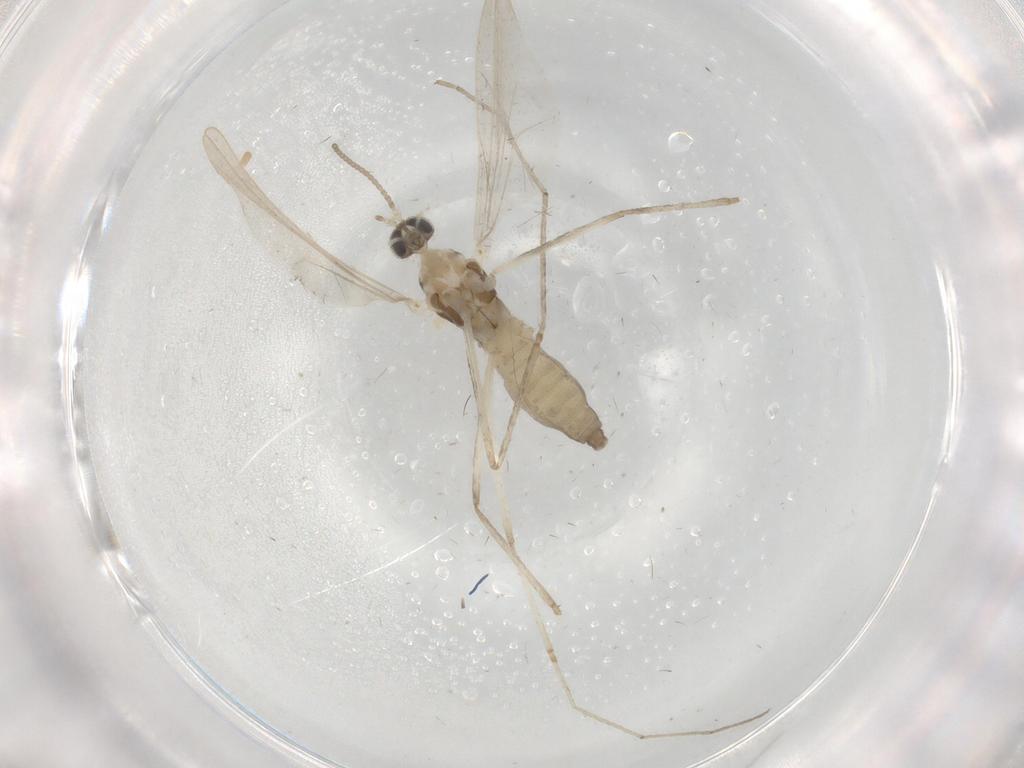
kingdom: Animalia
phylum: Arthropoda
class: Insecta
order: Diptera
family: Cecidomyiidae
